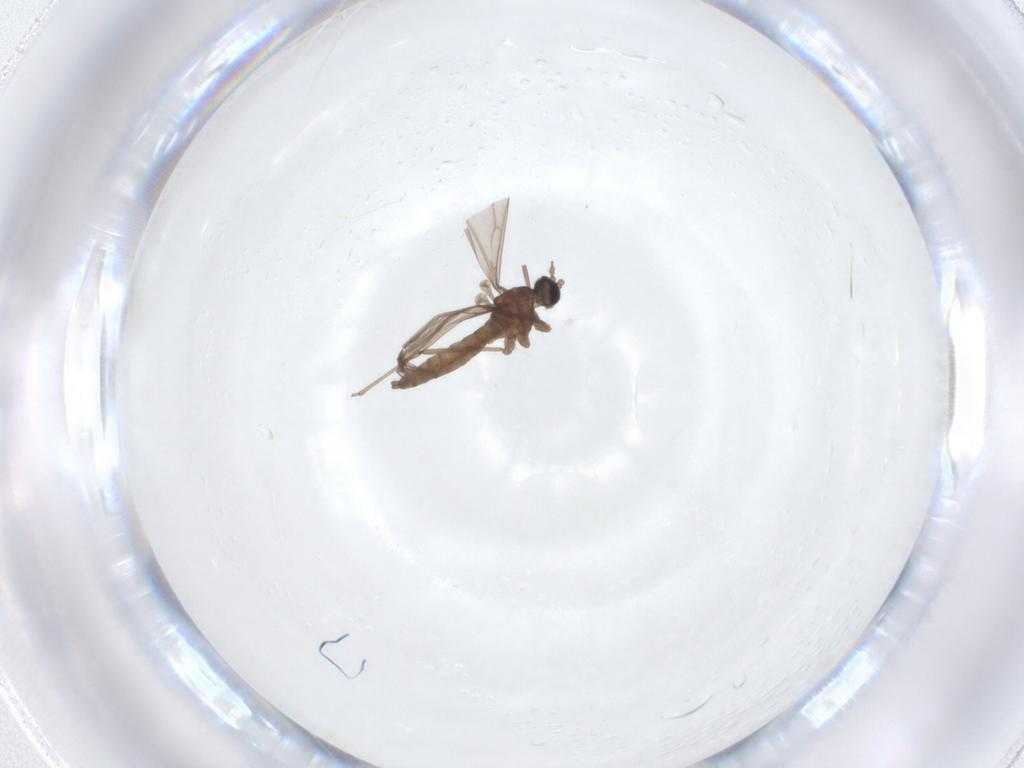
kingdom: Animalia
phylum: Arthropoda
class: Insecta
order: Diptera
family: Cecidomyiidae
